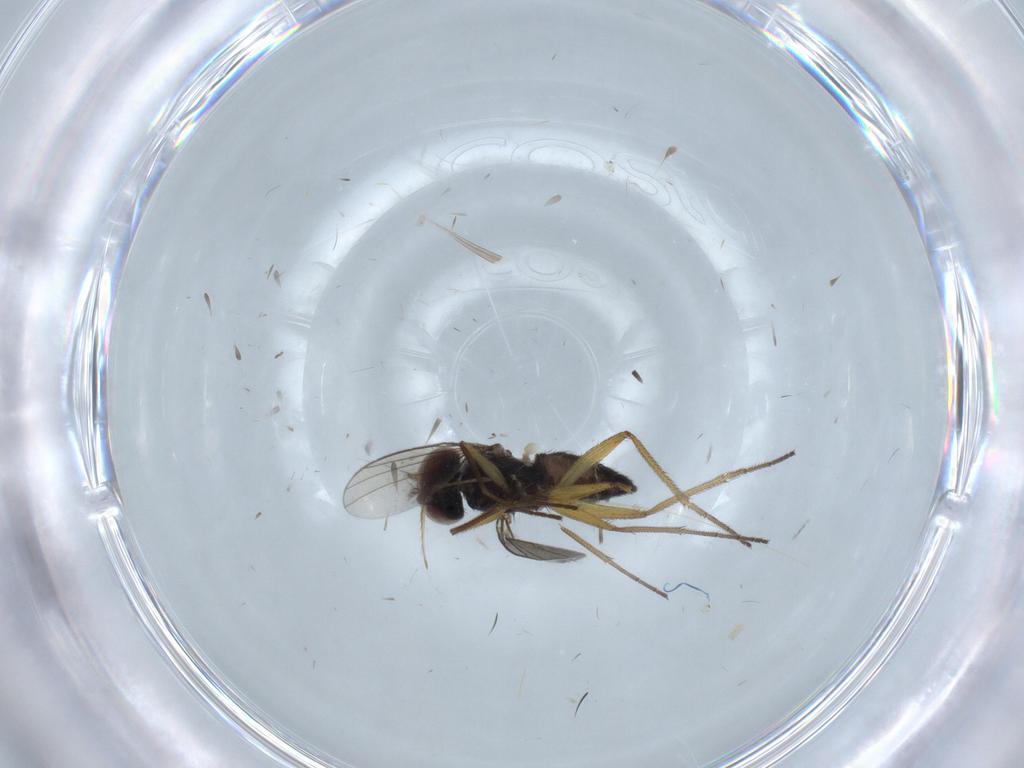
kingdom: Animalia
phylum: Arthropoda
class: Insecta
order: Diptera
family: Dolichopodidae
